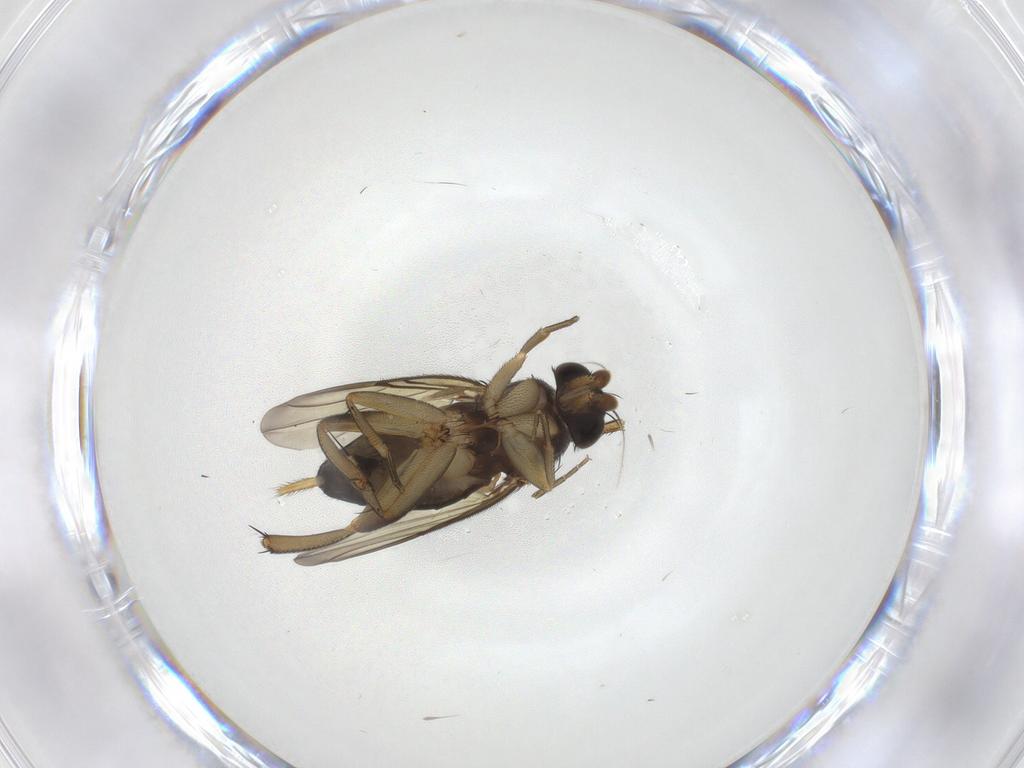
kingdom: Animalia
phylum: Arthropoda
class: Insecta
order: Diptera
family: Phoridae
